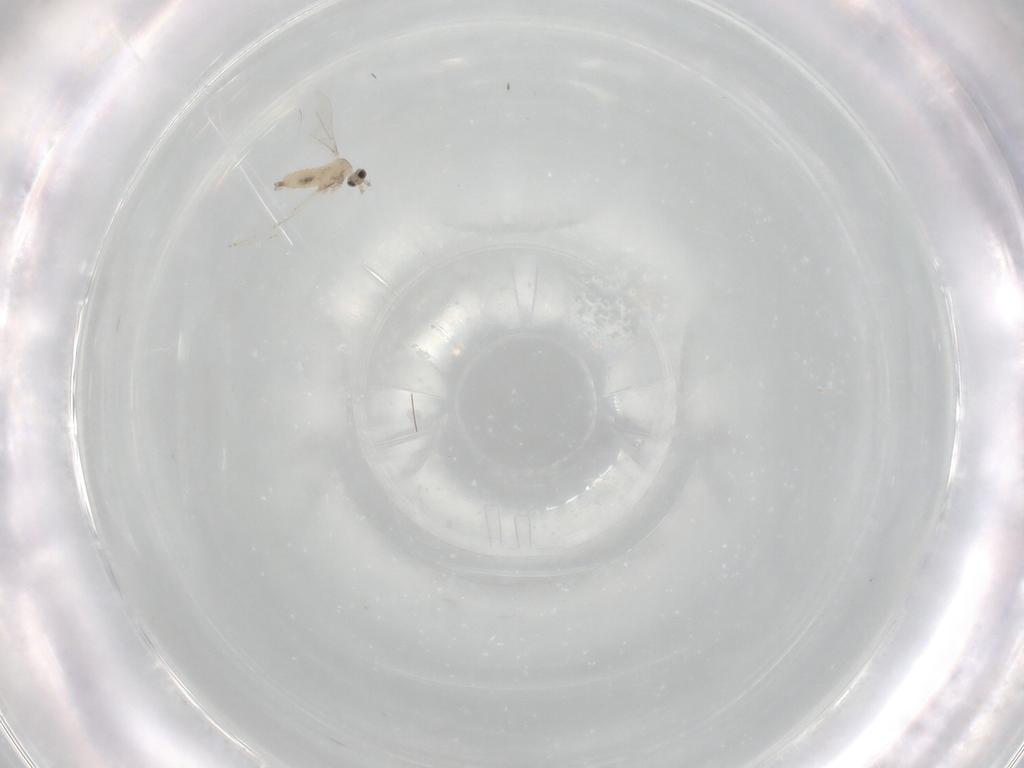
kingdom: Animalia
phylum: Arthropoda
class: Insecta
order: Diptera
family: Cecidomyiidae
